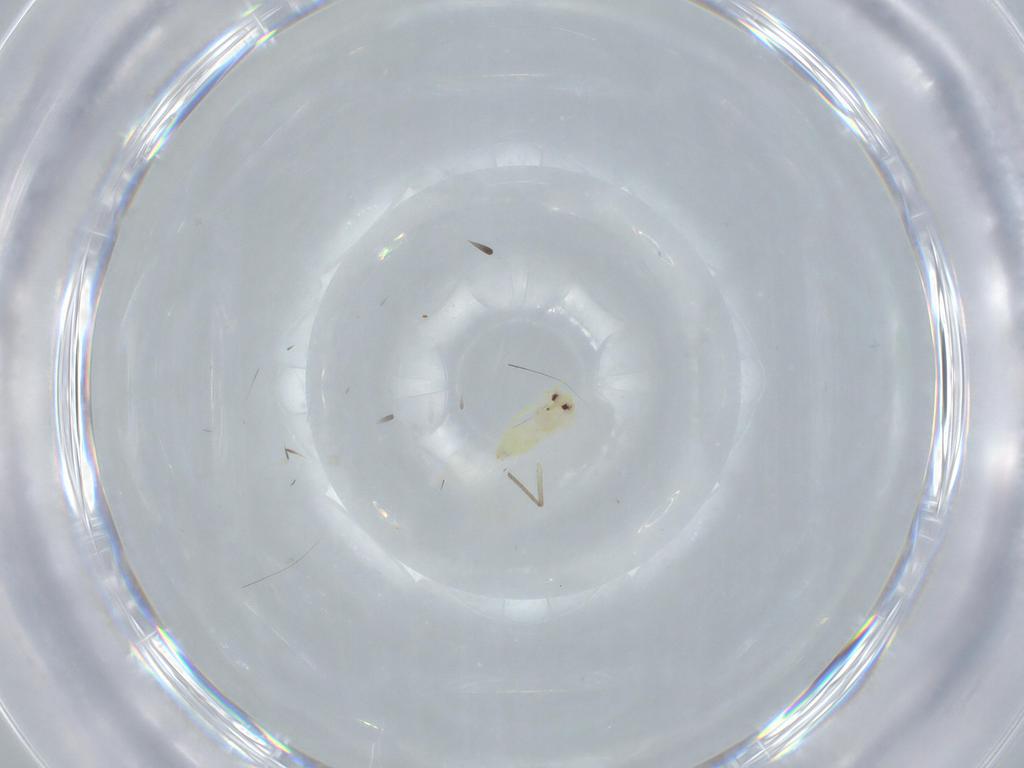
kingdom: Animalia
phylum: Arthropoda
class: Insecta
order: Hemiptera
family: Aleyrodidae
